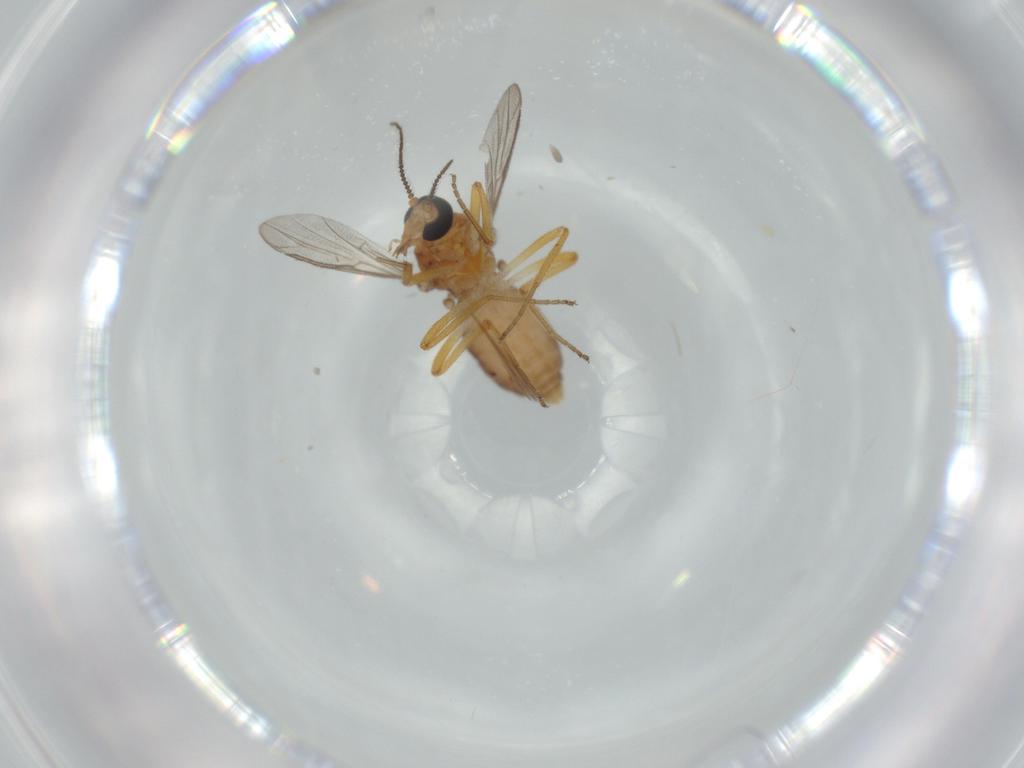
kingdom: Animalia
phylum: Arthropoda
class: Insecta
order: Diptera
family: Ceratopogonidae
